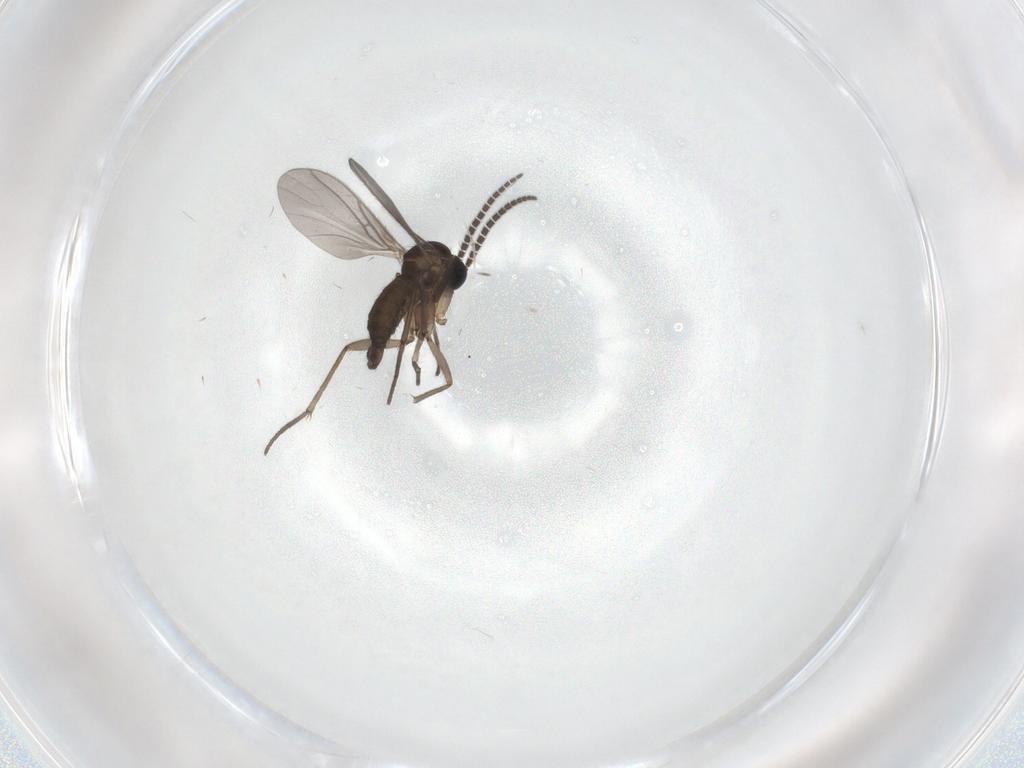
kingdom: Animalia
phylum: Arthropoda
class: Insecta
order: Diptera
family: Sciaridae
